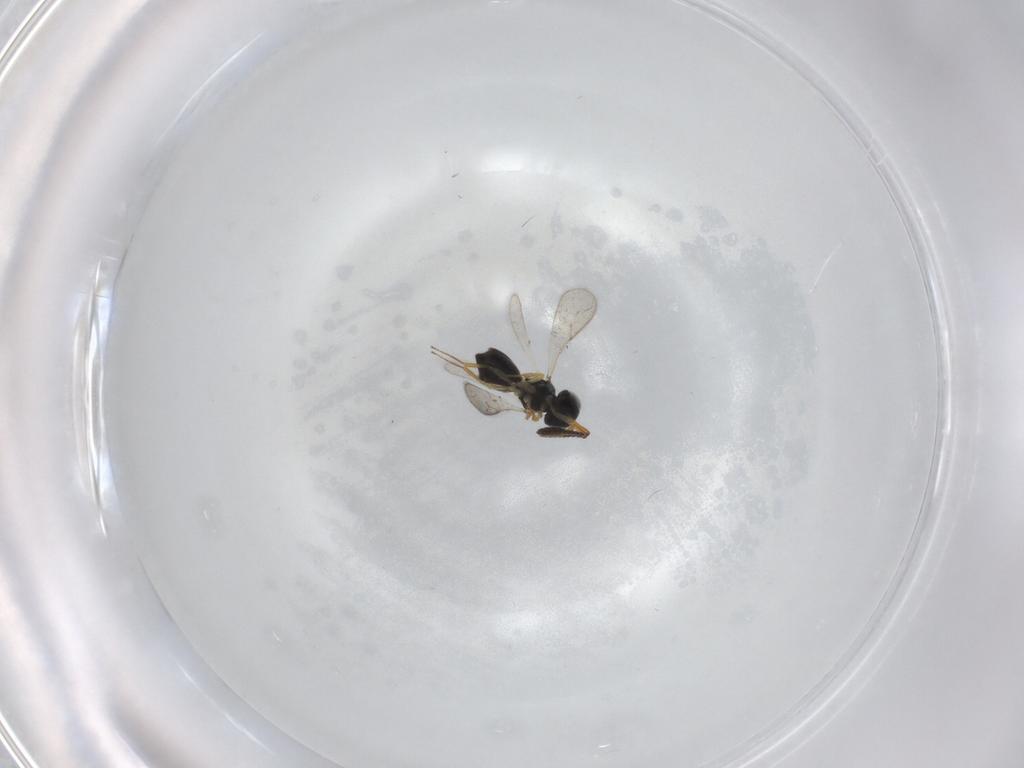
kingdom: Animalia
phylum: Arthropoda
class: Insecta
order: Hymenoptera
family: Scelionidae
